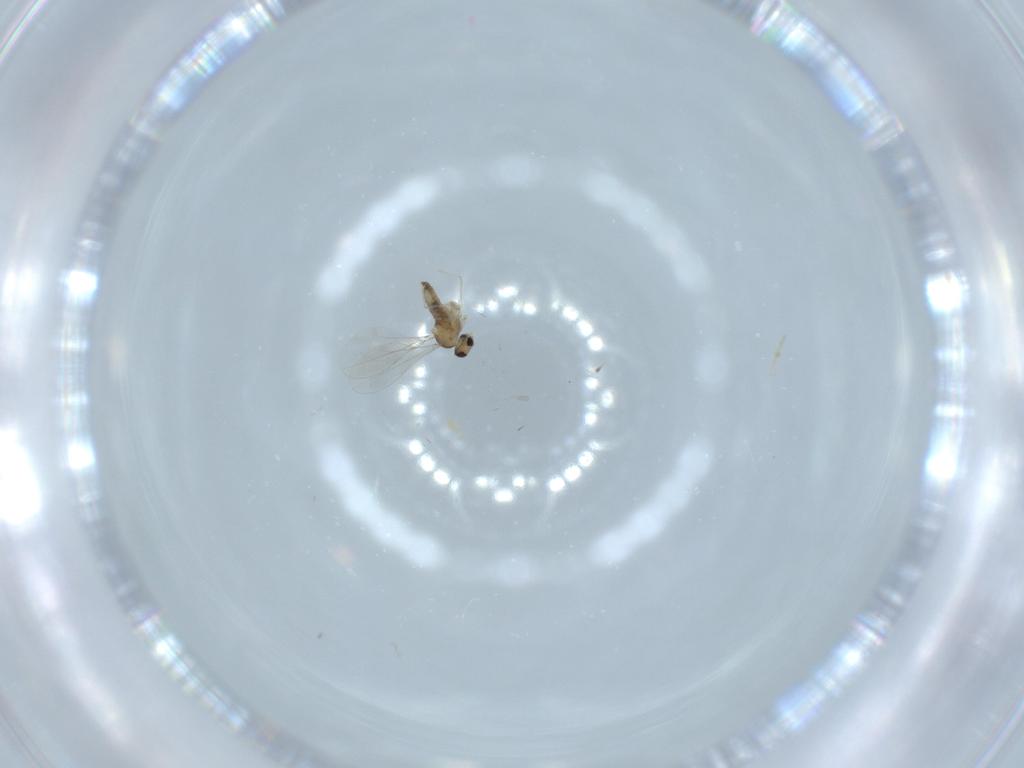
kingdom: Animalia
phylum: Arthropoda
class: Insecta
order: Diptera
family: Cecidomyiidae
